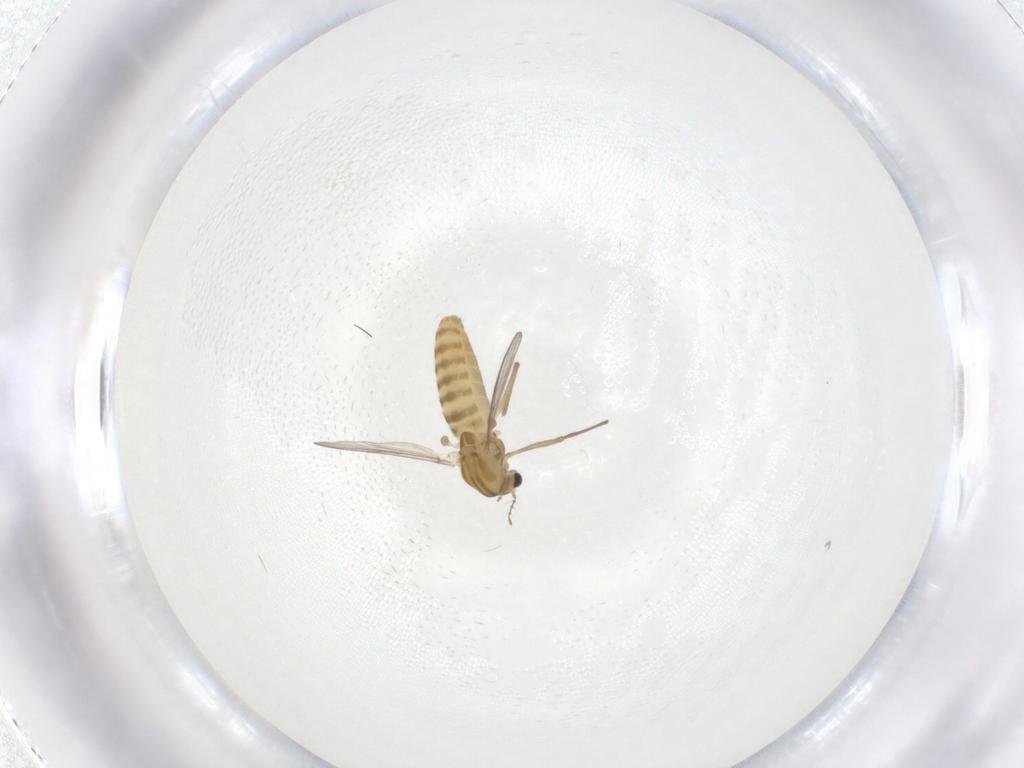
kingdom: Animalia
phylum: Arthropoda
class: Insecta
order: Diptera
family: Chironomidae
